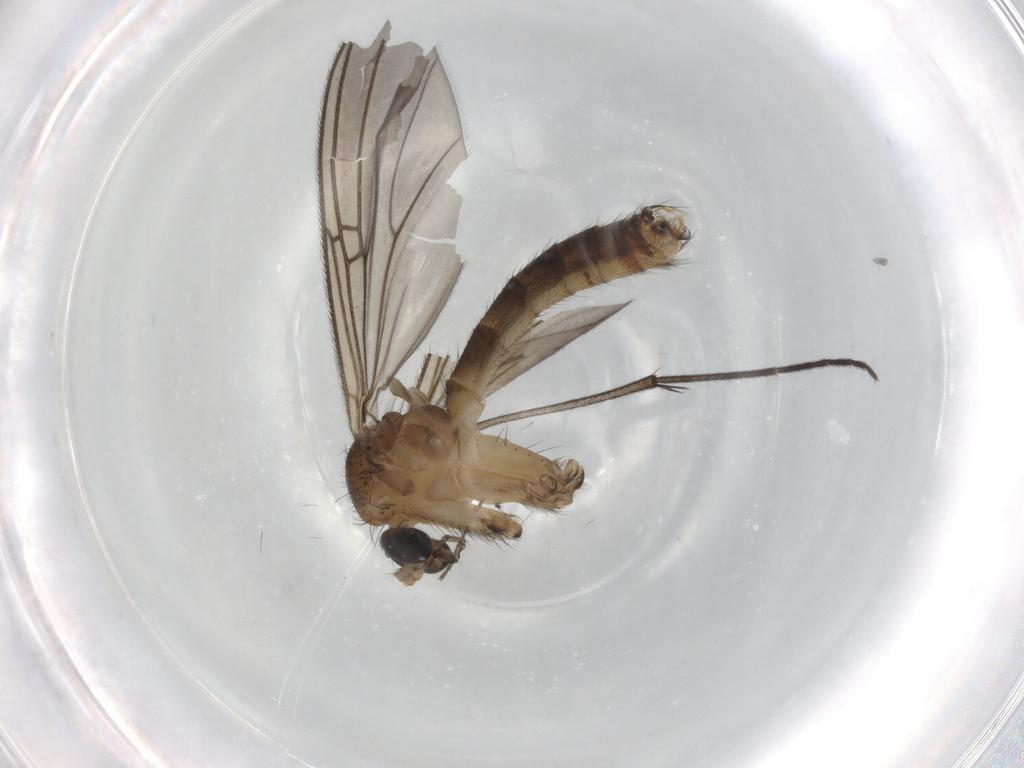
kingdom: Animalia
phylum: Arthropoda
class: Insecta
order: Diptera
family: Mycetophilidae
